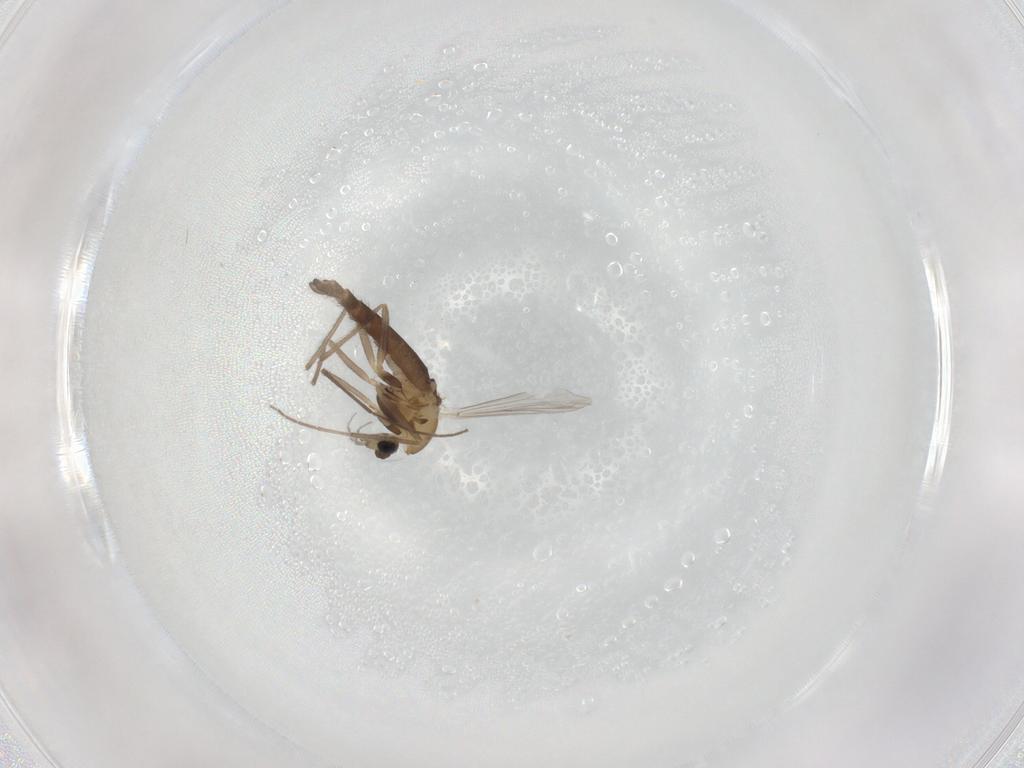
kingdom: Animalia
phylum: Arthropoda
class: Insecta
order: Diptera
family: Chironomidae
